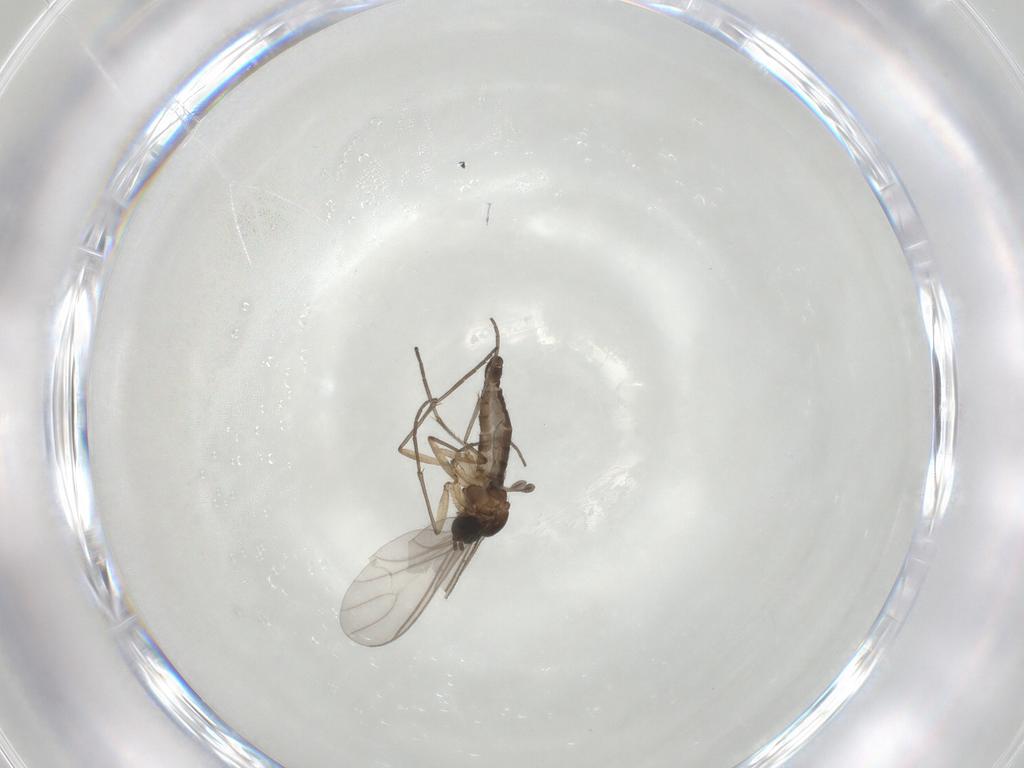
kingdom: Animalia
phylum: Arthropoda
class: Insecta
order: Diptera
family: Sciaridae
